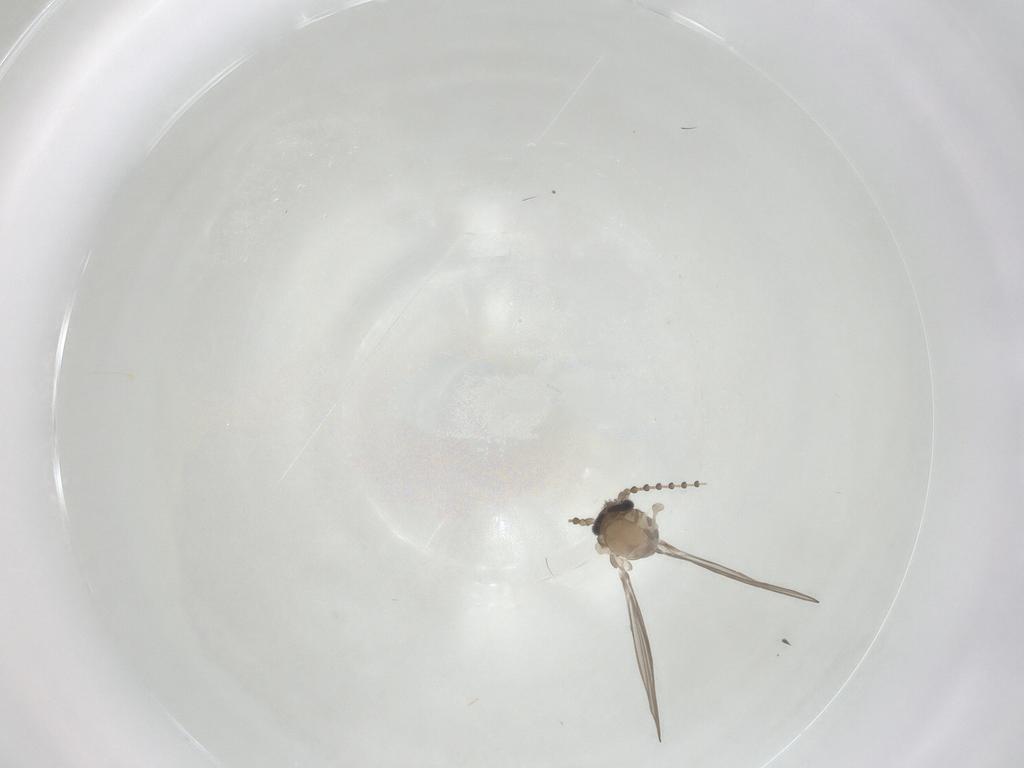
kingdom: Animalia
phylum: Arthropoda
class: Insecta
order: Diptera
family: Psychodidae
